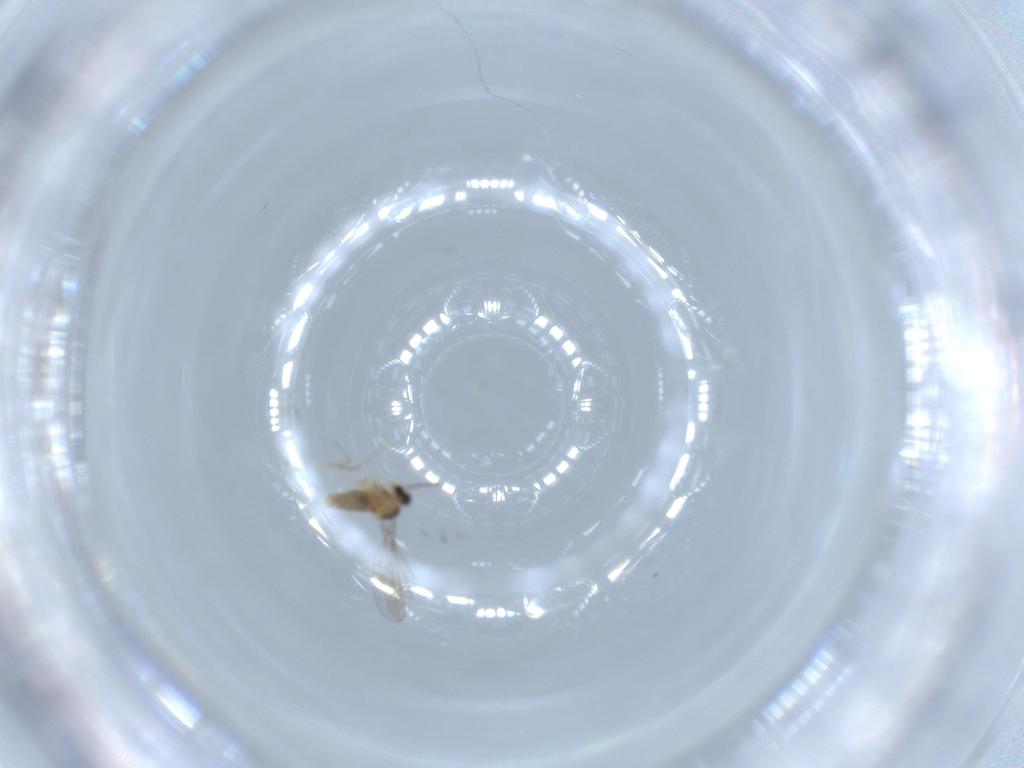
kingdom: Animalia
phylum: Arthropoda
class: Insecta
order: Diptera
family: Cecidomyiidae
